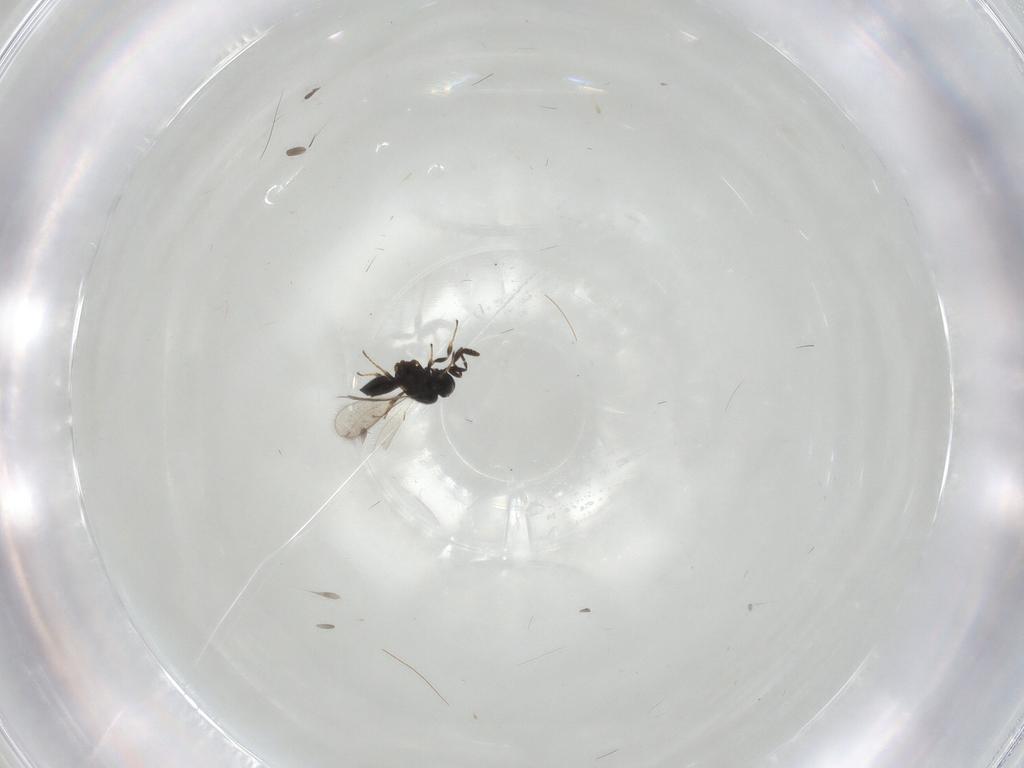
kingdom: Animalia
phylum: Arthropoda
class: Insecta
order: Hymenoptera
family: Scelionidae
